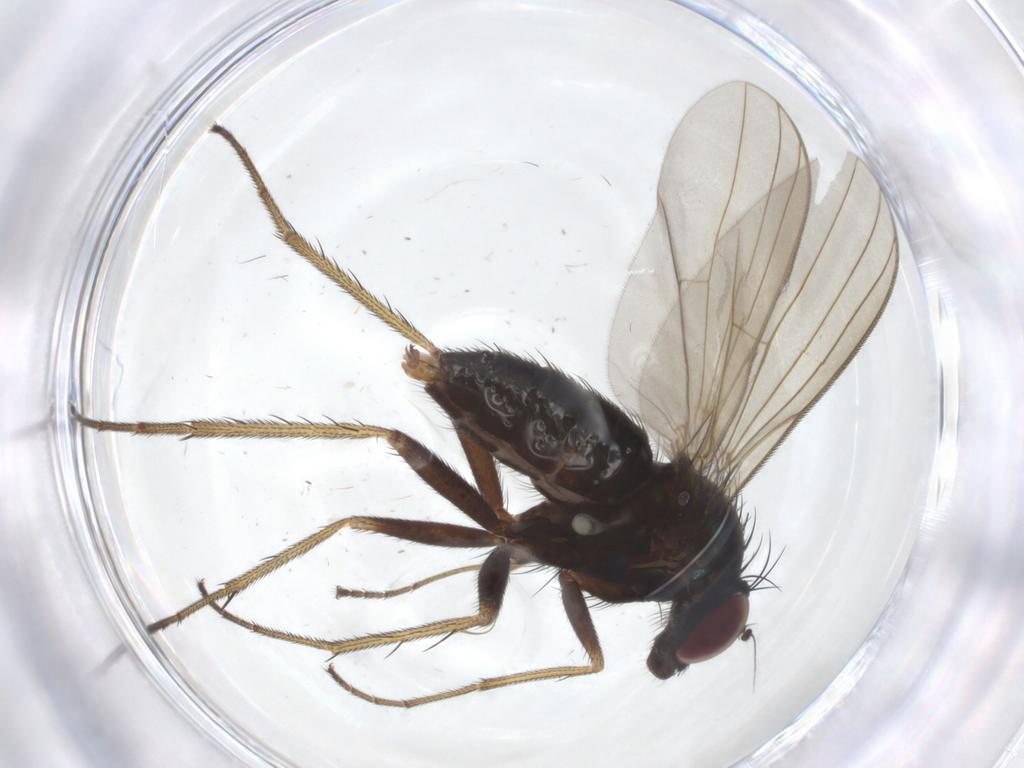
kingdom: Animalia
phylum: Arthropoda
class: Insecta
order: Diptera
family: Dolichopodidae
